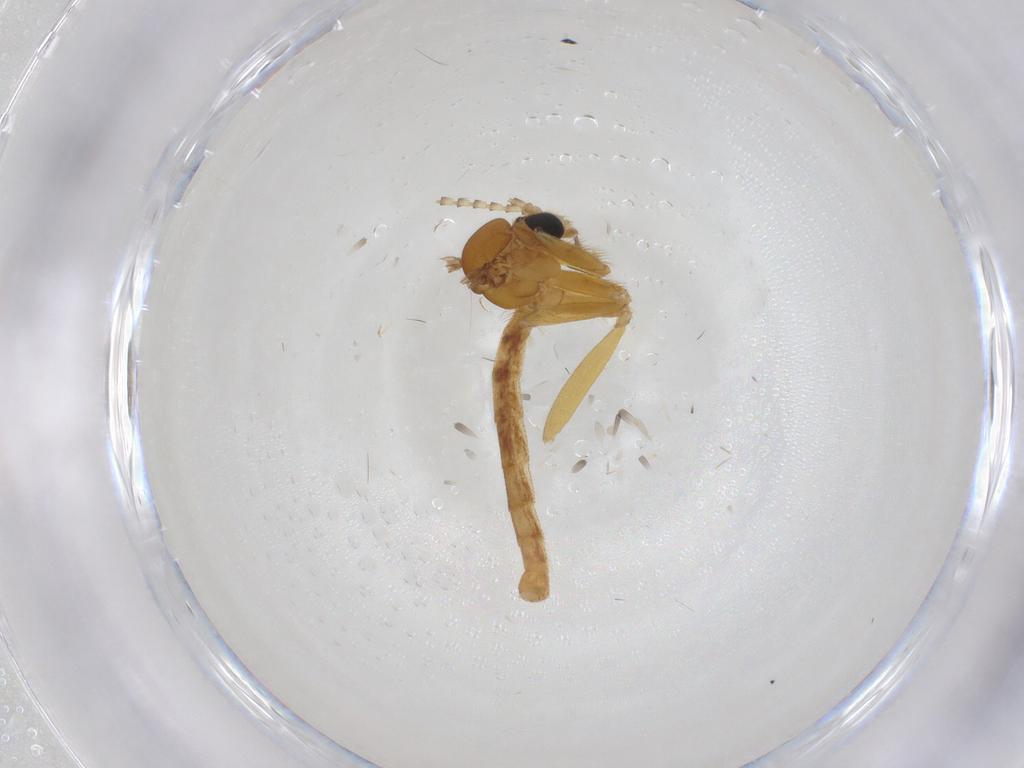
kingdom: Animalia
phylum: Arthropoda
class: Insecta
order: Diptera
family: Mycetophilidae
